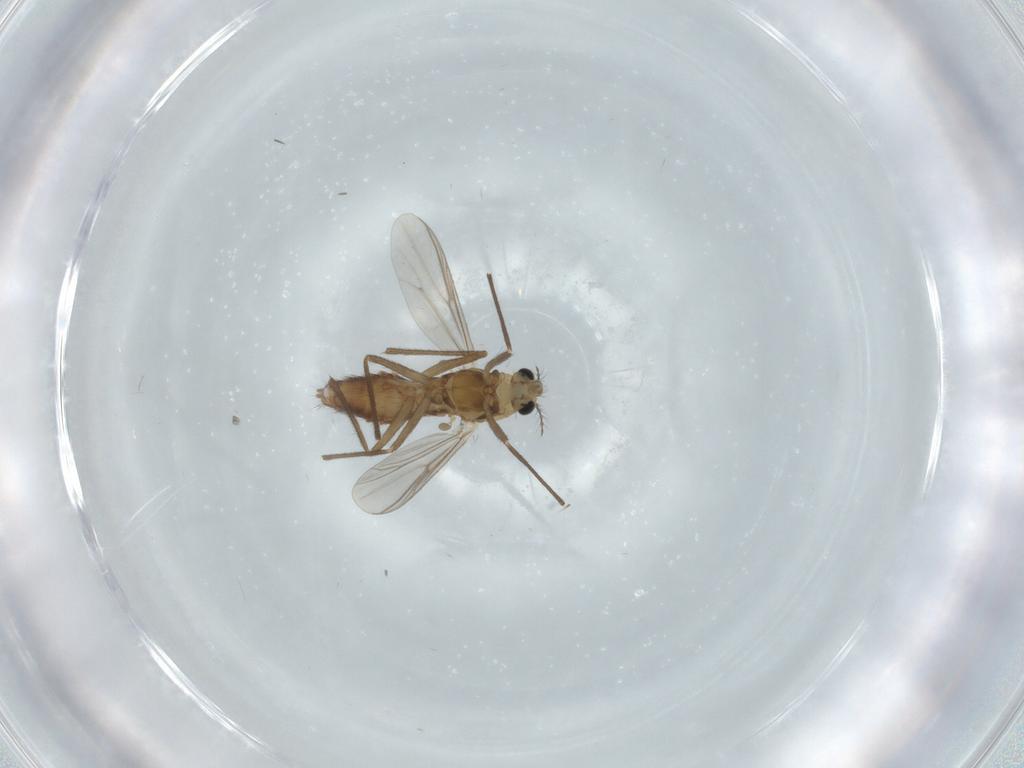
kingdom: Animalia
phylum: Arthropoda
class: Insecta
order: Diptera
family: Chironomidae
